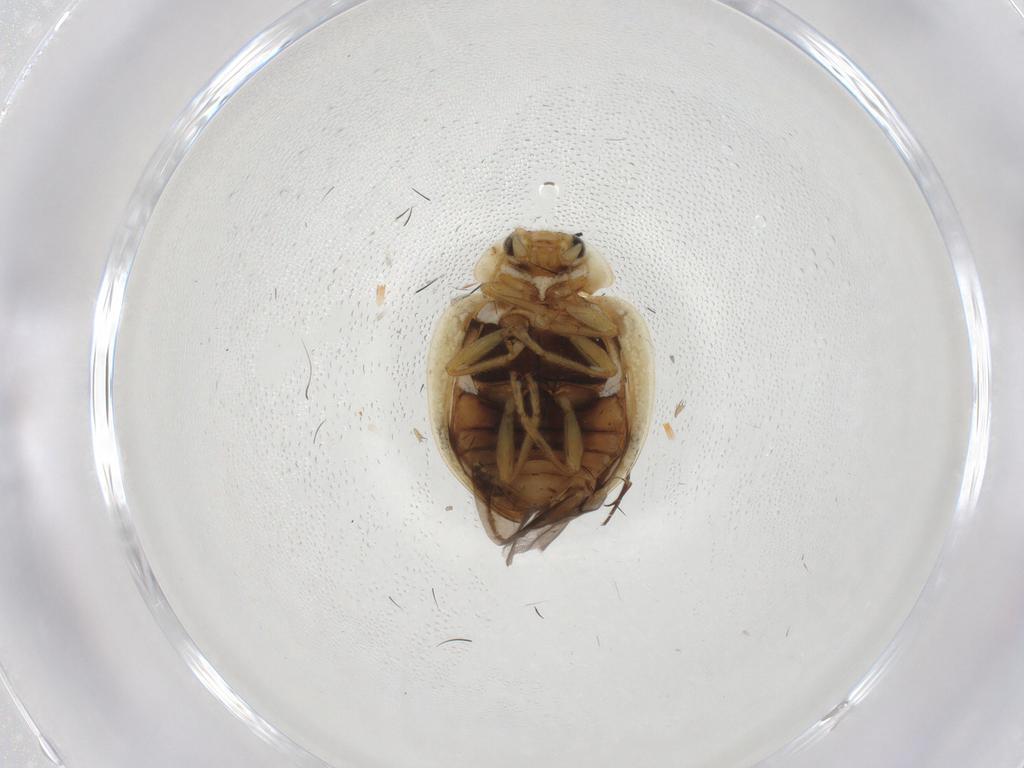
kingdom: Animalia
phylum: Arthropoda
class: Insecta
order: Coleoptera
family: Coccinellidae
